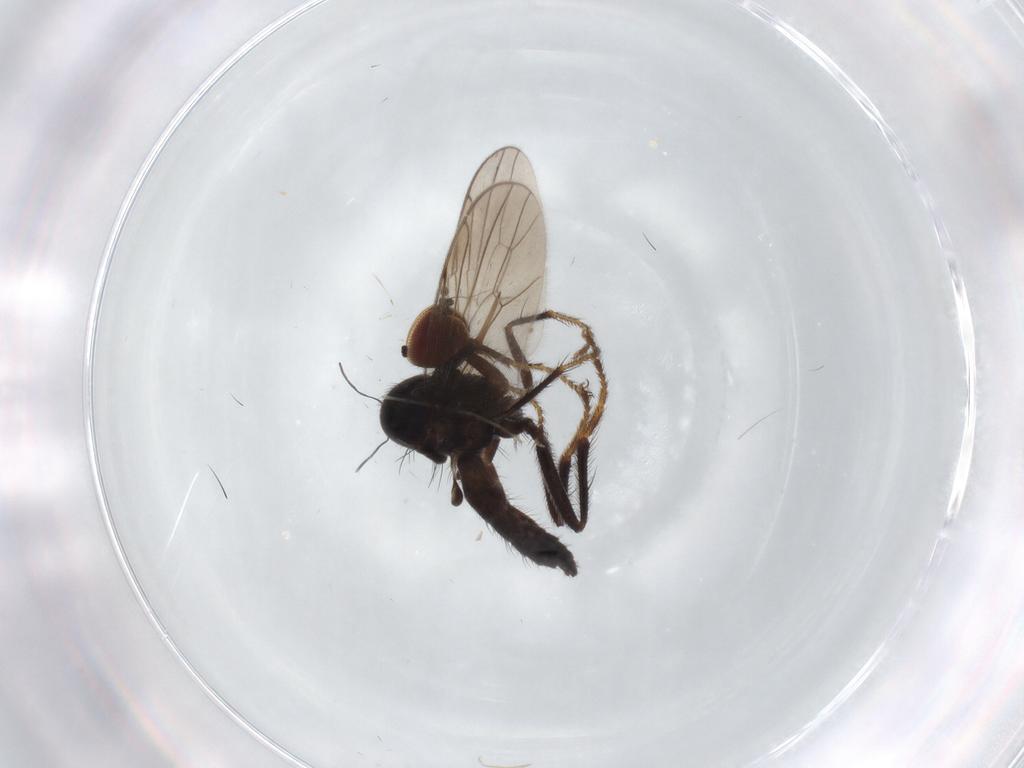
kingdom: Animalia
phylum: Arthropoda
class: Insecta
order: Diptera
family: Hybotidae
